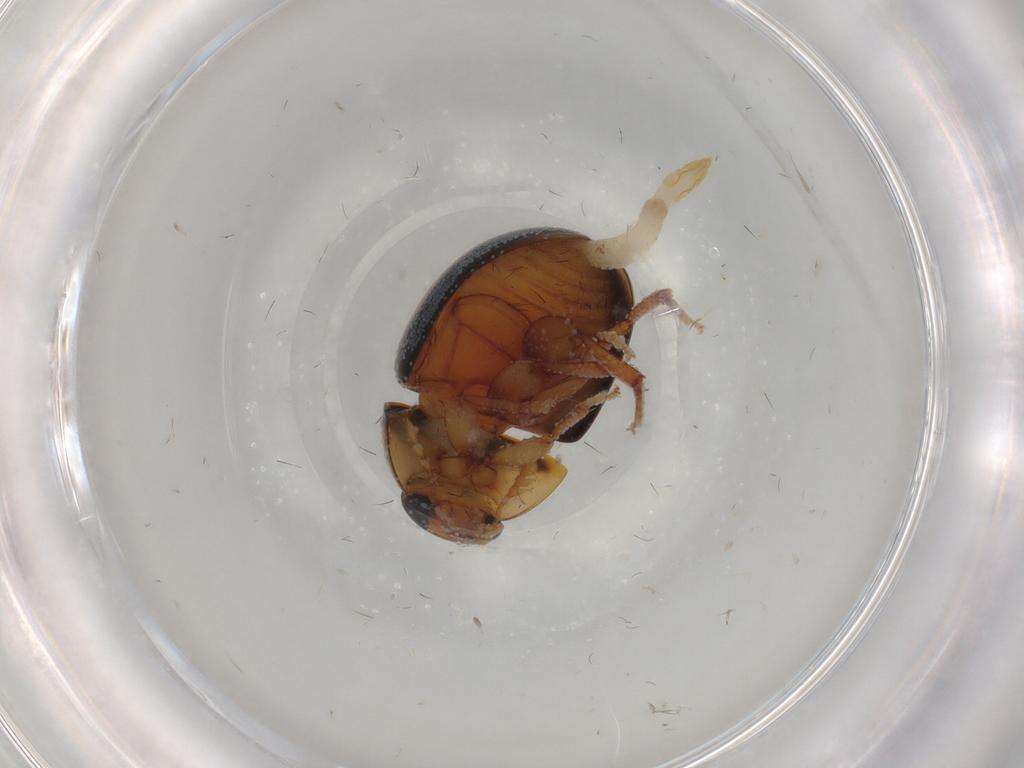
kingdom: Animalia
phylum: Arthropoda
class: Insecta
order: Coleoptera
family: Phalacridae
